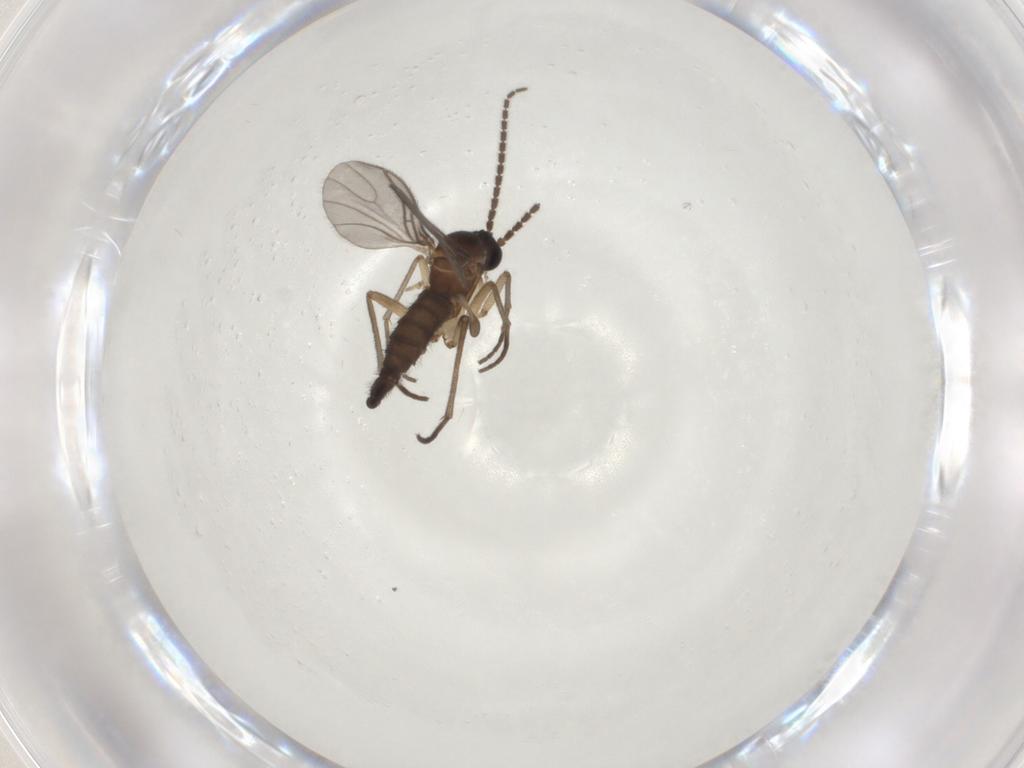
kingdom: Animalia
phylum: Arthropoda
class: Insecta
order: Diptera
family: Sciaridae
